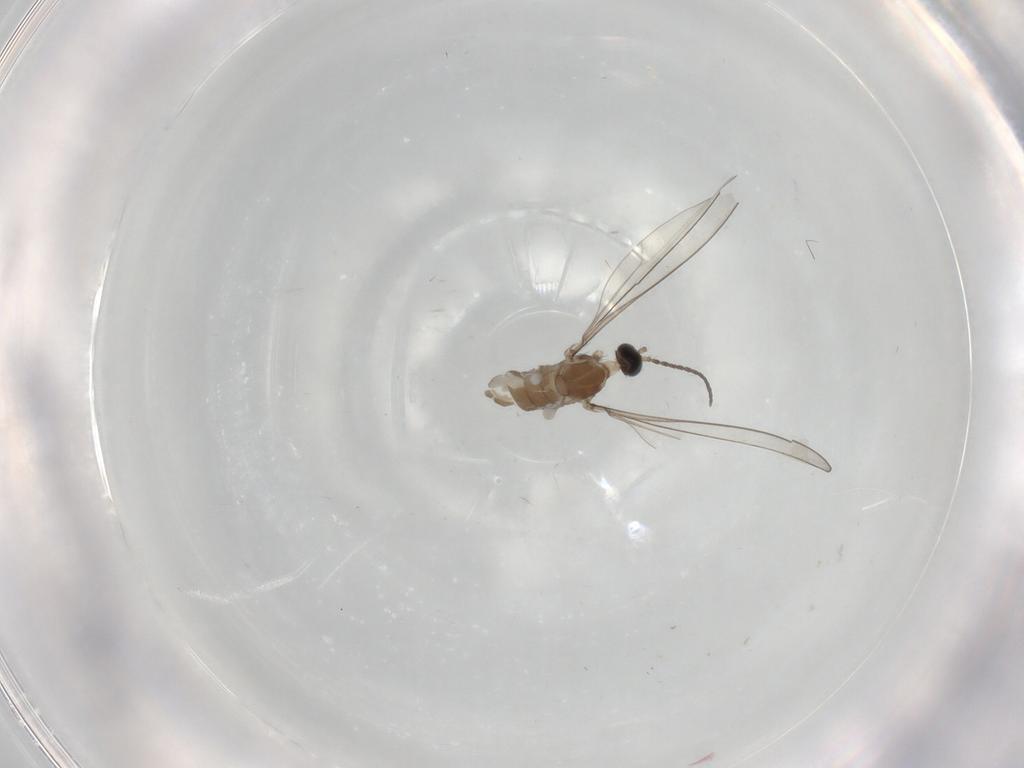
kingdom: Animalia
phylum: Arthropoda
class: Insecta
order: Diptera
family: Cecidomyiidae
